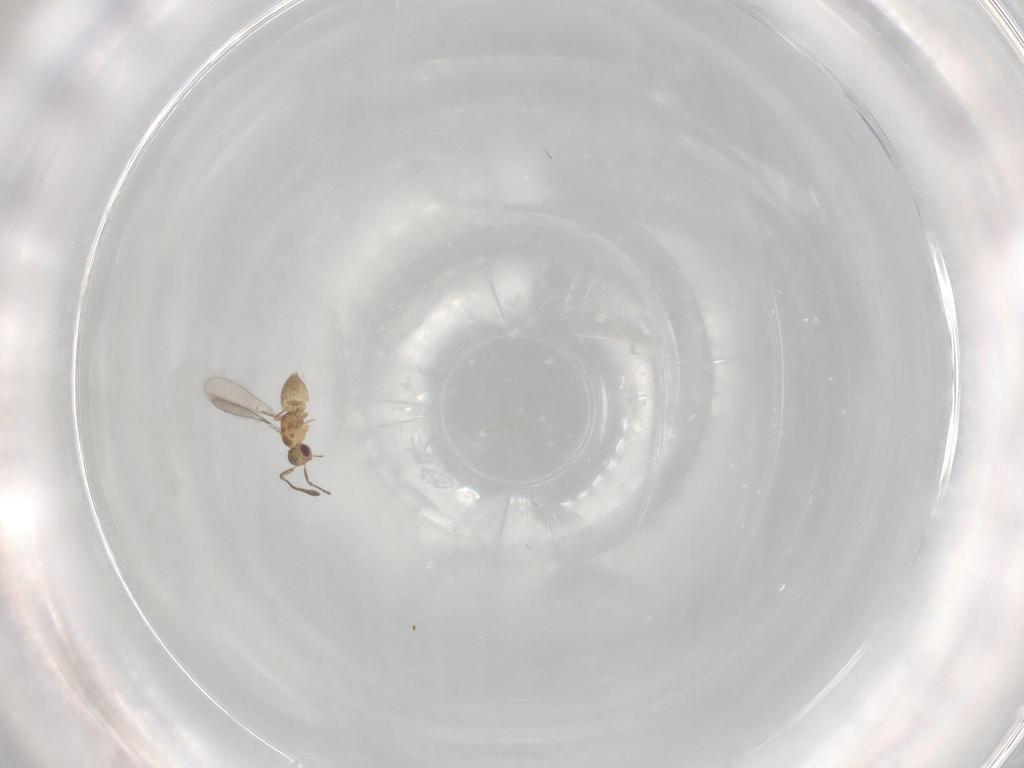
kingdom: Animalia
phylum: Arthropoda
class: Insecta
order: Hymenoptera
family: Mymaridae
